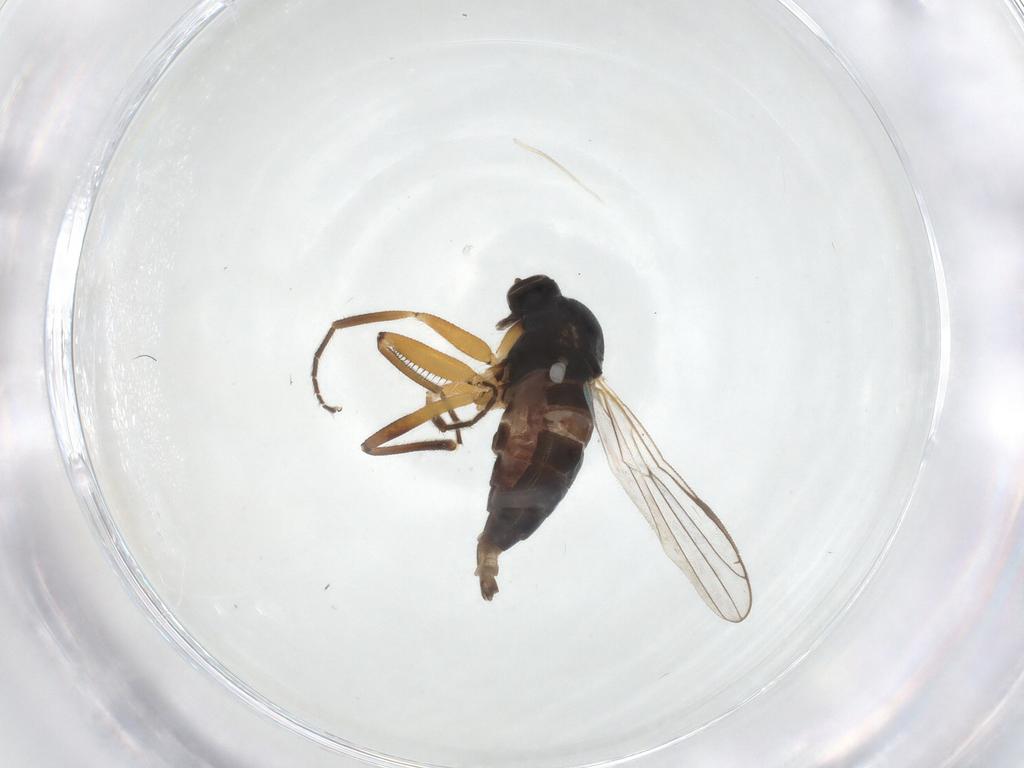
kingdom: Animalia
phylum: Arthropoda
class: Insecta
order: Diptera
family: Hybotidae
